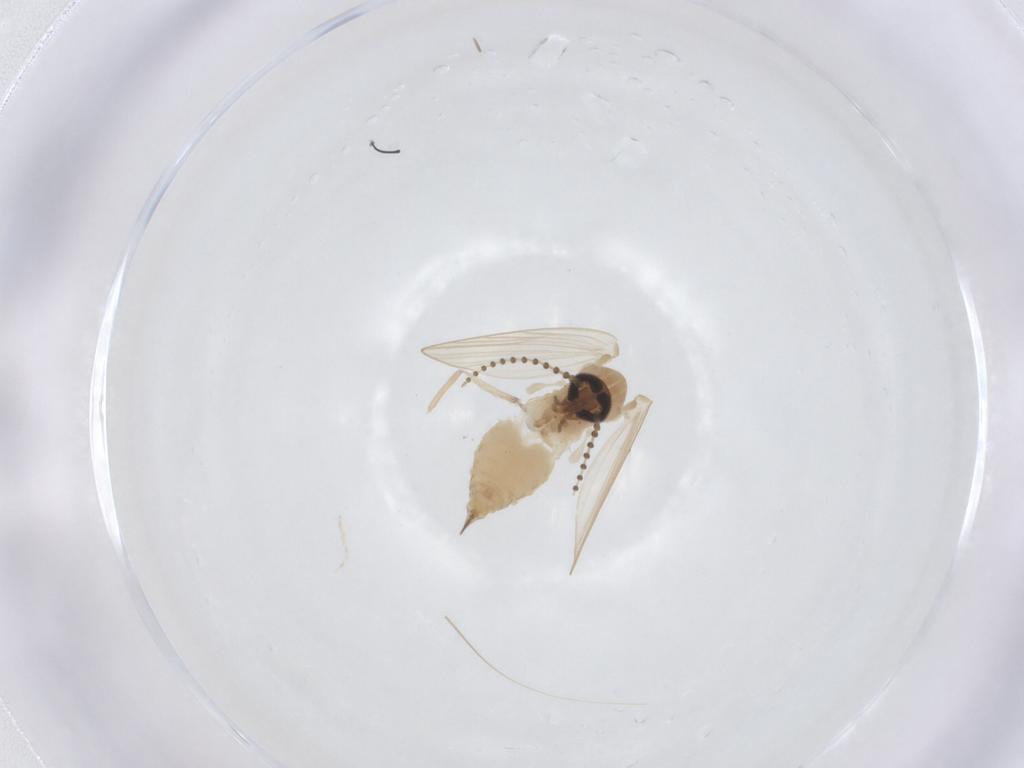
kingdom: Animalia
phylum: Arthropoda
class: Insecta
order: Diptera
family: Psychodidae
